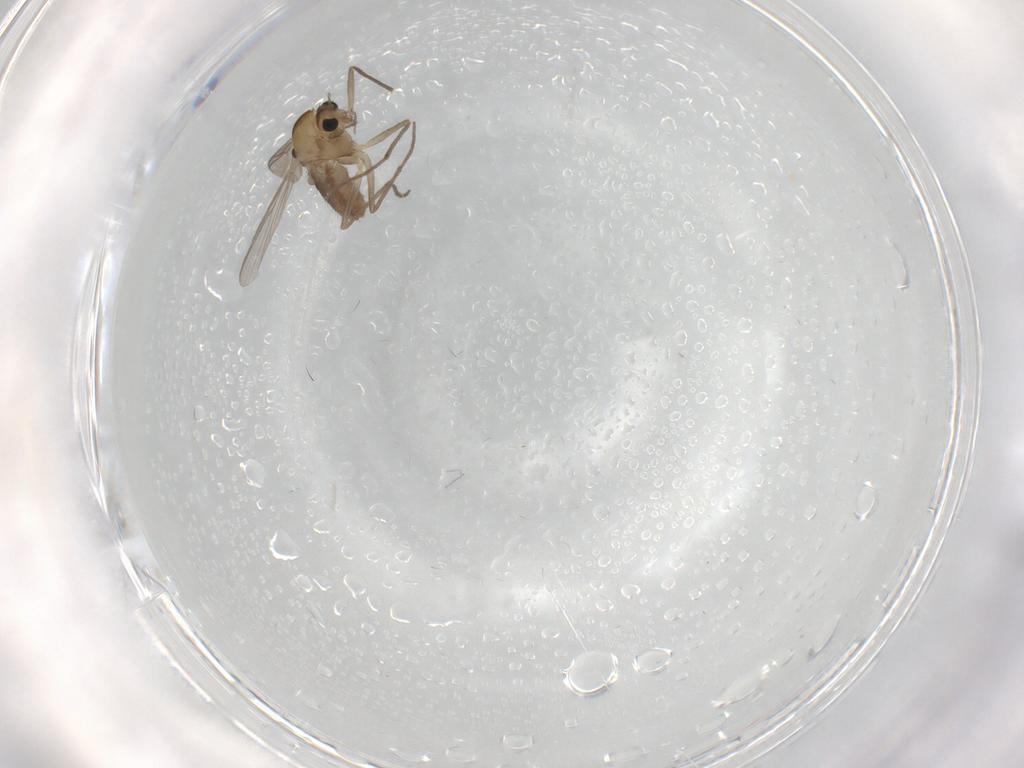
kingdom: Animalia
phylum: Arthropoda
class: Insecta
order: Diptera
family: Chironomidae
